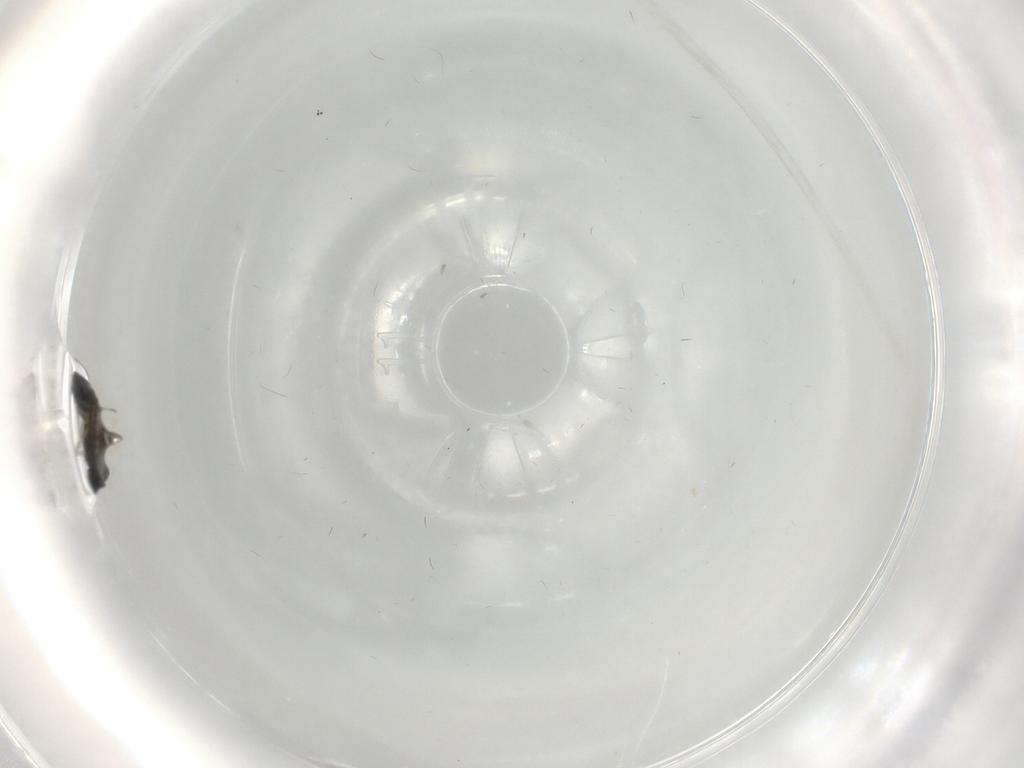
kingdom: Animalia
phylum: Arthropoda
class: Insecta
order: Hymenoptera
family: Scelionidae
